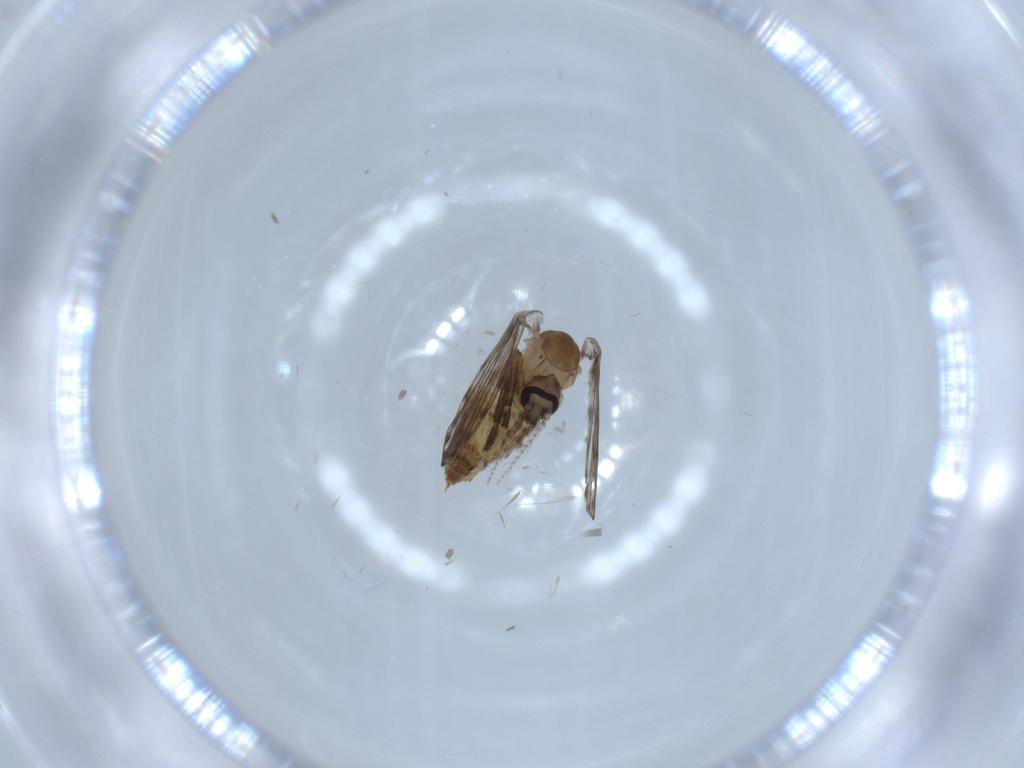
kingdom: Animalia
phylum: Arthropoda
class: Insecta
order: Diptera
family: Psychodidae
